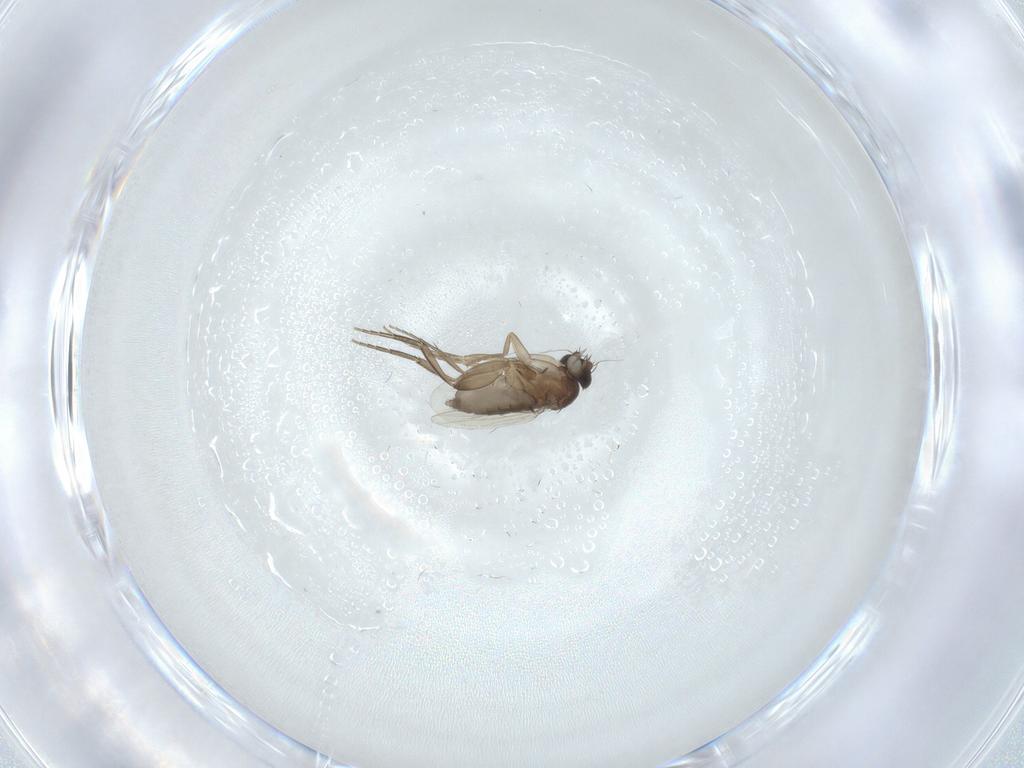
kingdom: Animalia
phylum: Arthropoda
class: Insecta
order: Diptera
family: Phoridae
